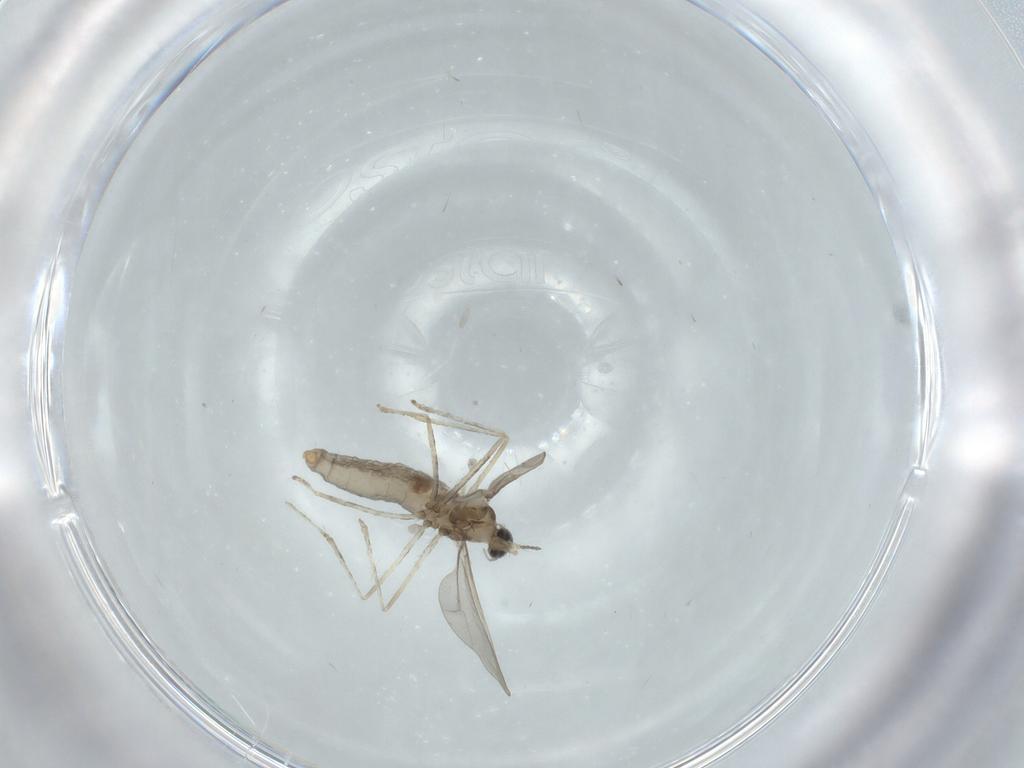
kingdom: Animalia
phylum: Arthropoda
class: Insecta
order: Diptera
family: Cecidomyiidae
